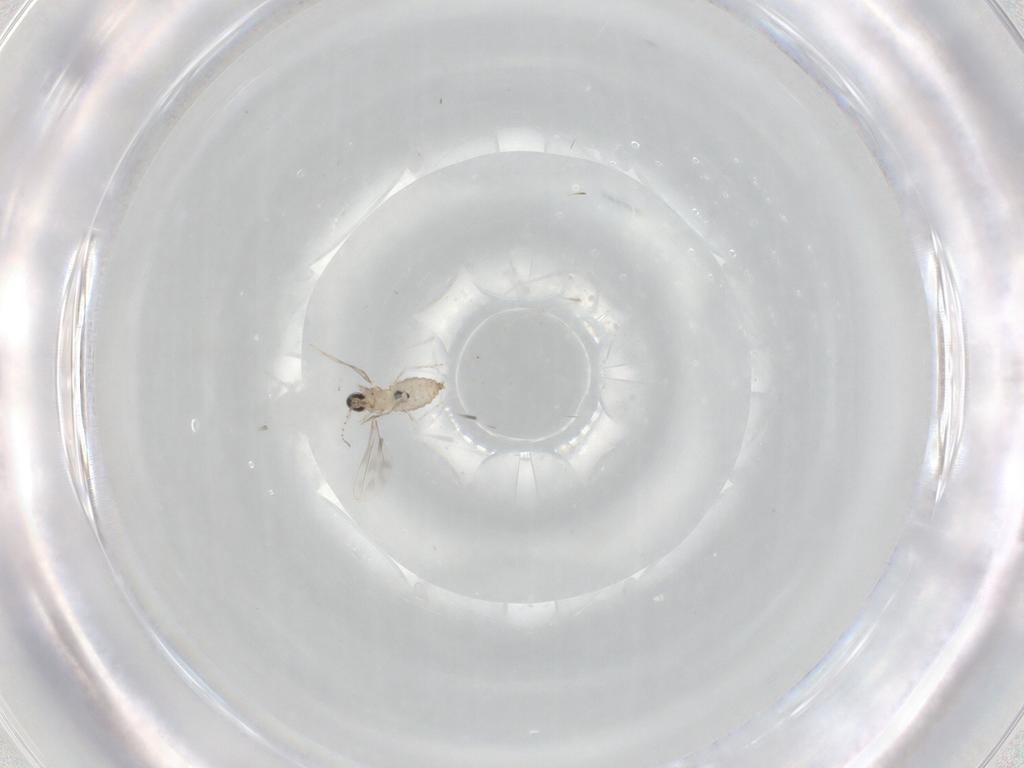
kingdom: Animalia
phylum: Arthropoda
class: Insecta
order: Diptera
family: Cecidomyiidae
